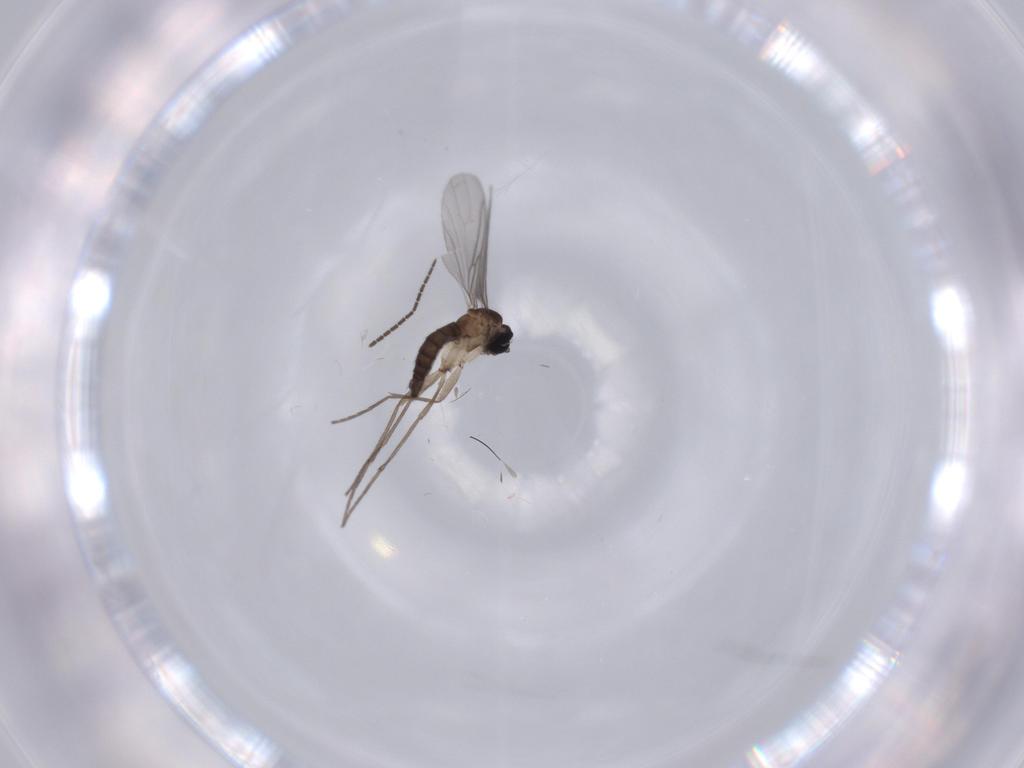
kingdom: Animalia
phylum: Arthropoda
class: Insecta
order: Diptera
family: Sciaridae
